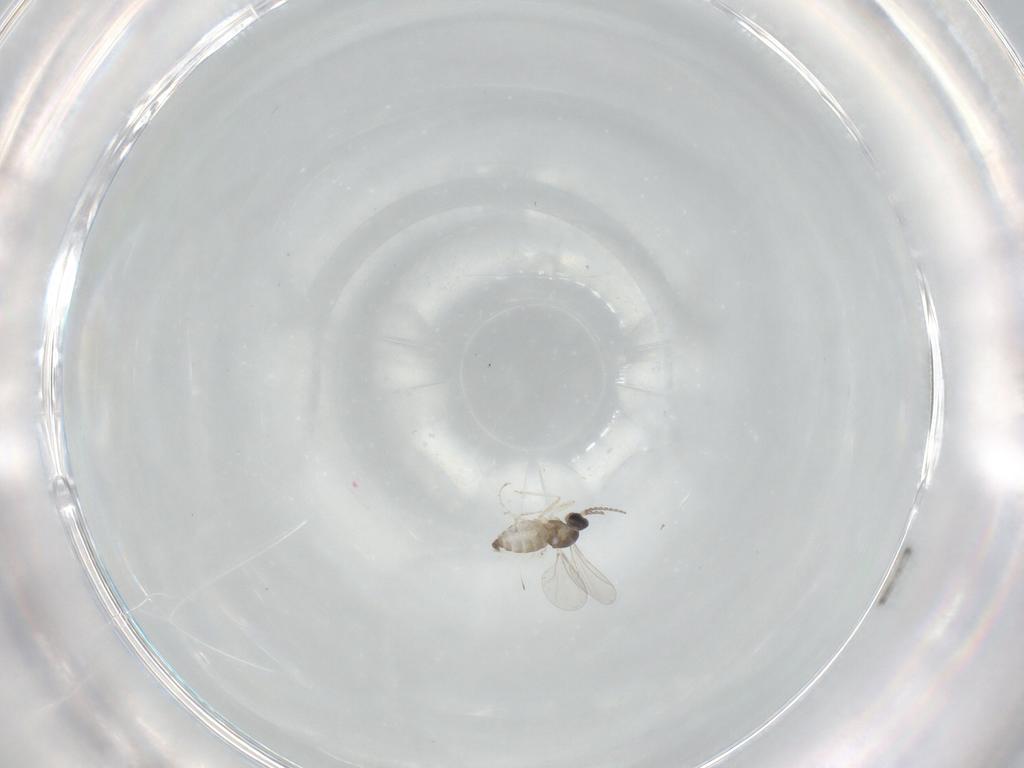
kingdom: Animalia
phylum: Arthropoda
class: Insecta
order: Diptera
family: Cecidomyiidae
